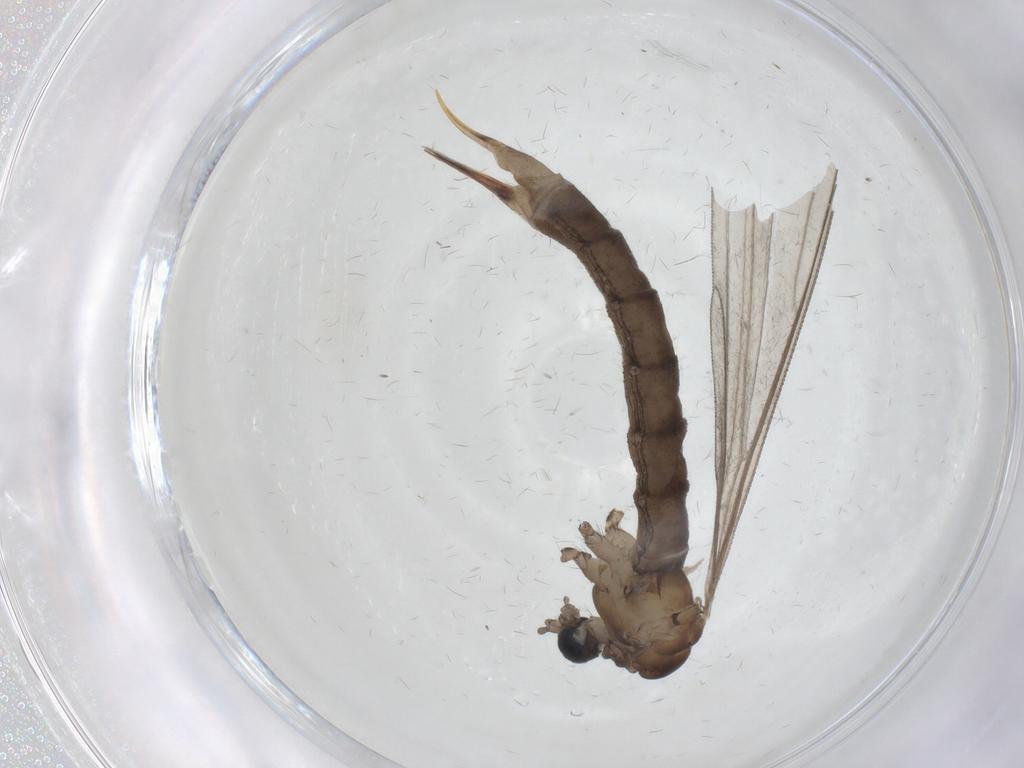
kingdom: Animalia
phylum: Arthropoda
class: Insecta
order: Diptera
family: Limoniidae
